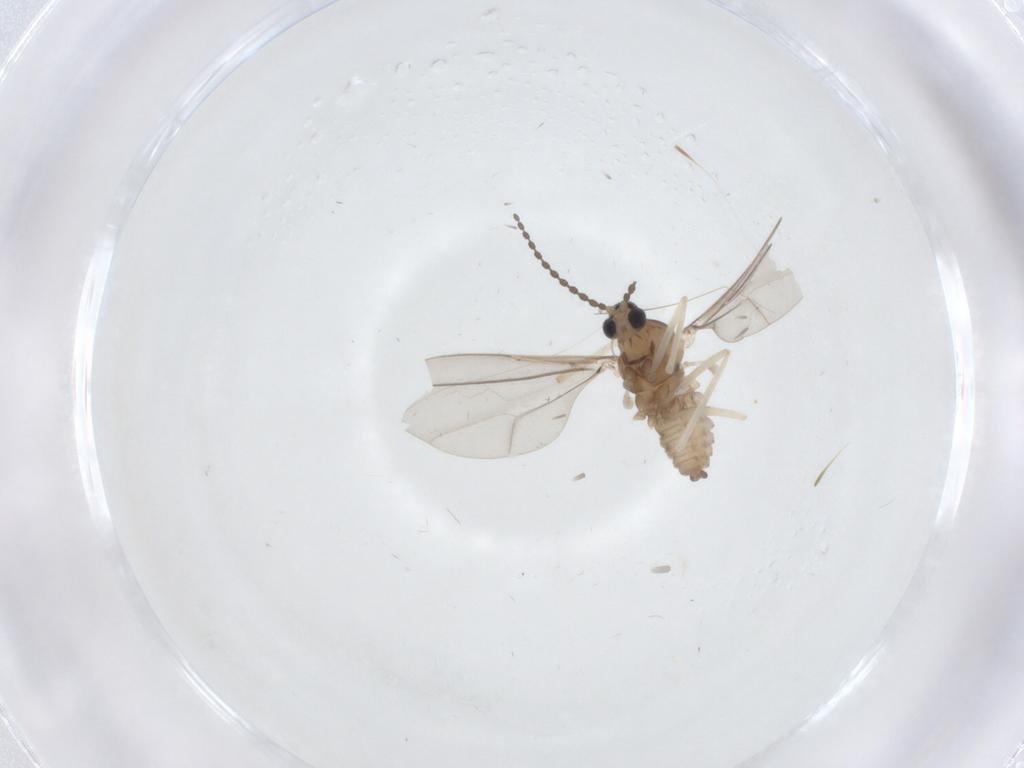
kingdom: Animalia
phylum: Arthropoda
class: Insecta
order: Diptera
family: Cecidomyiidae
